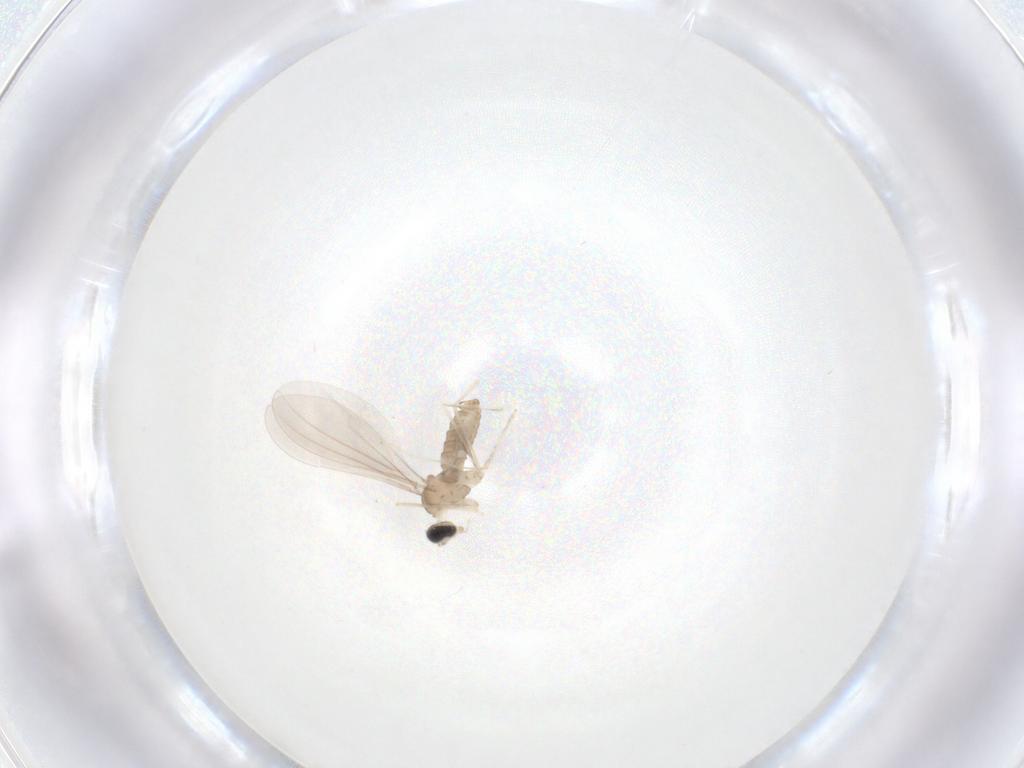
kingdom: Animalia
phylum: Arthropoda
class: Insecta
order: Diptera
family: Cecidomyiidae
